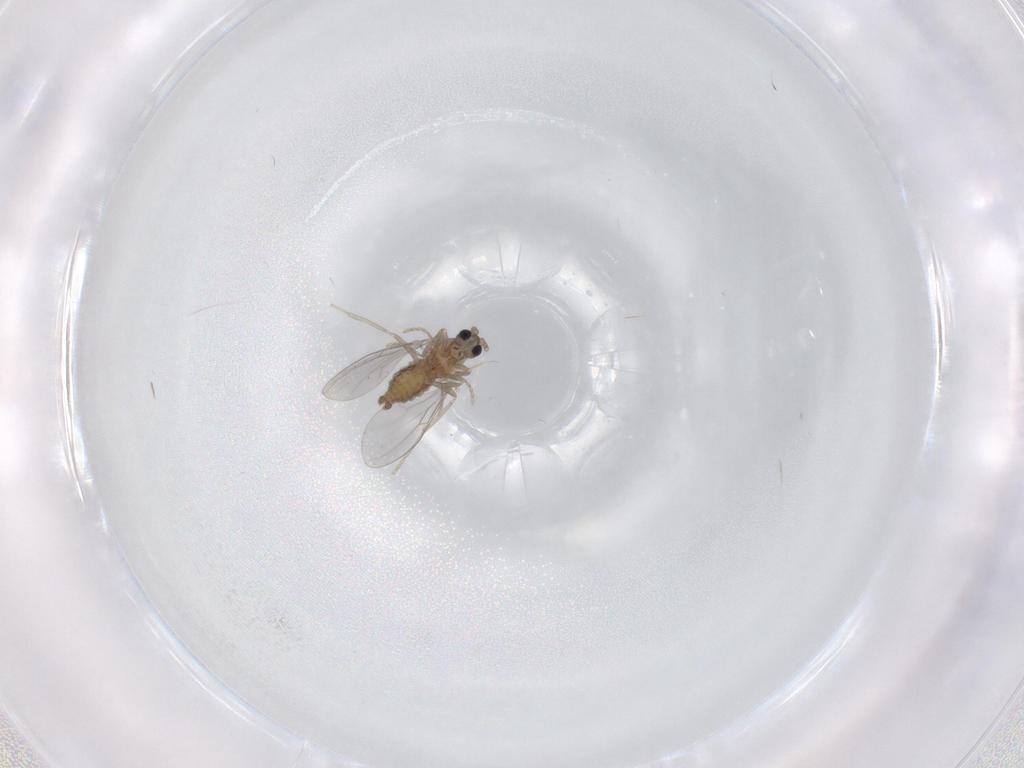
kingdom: Animalia
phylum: Arthropoda
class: Insecta
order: Diptera
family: Cecidomyiidae
